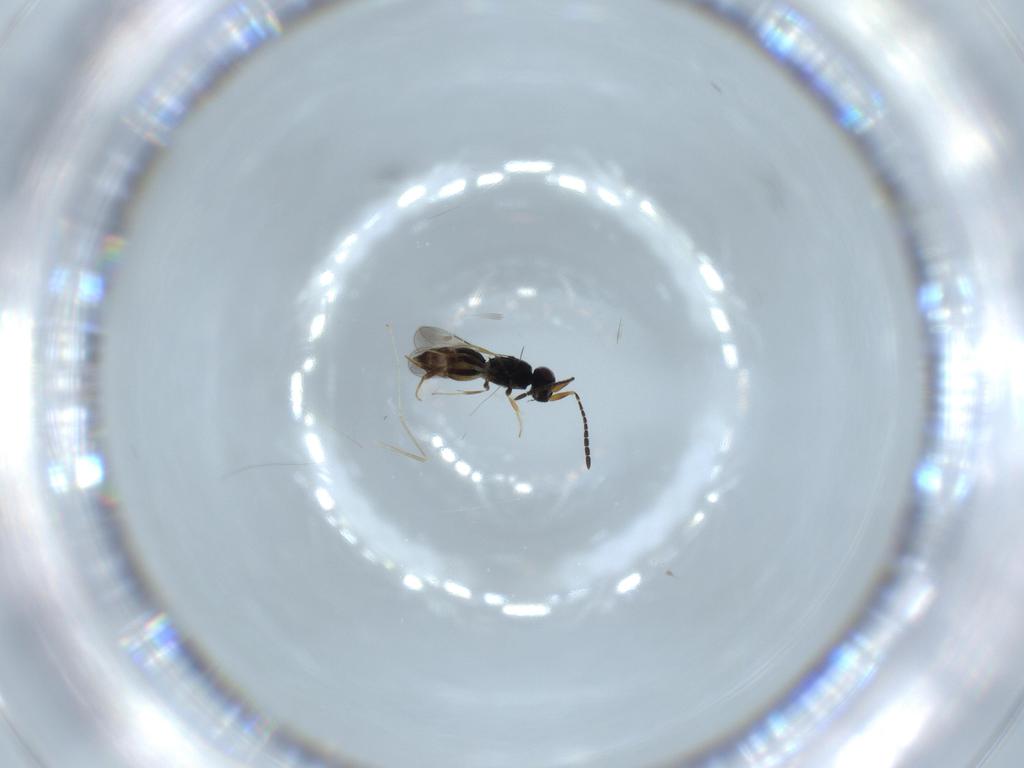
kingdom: Animalia
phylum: Arthropoda
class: Insecta
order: Diptera
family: Cecidomyiidae
